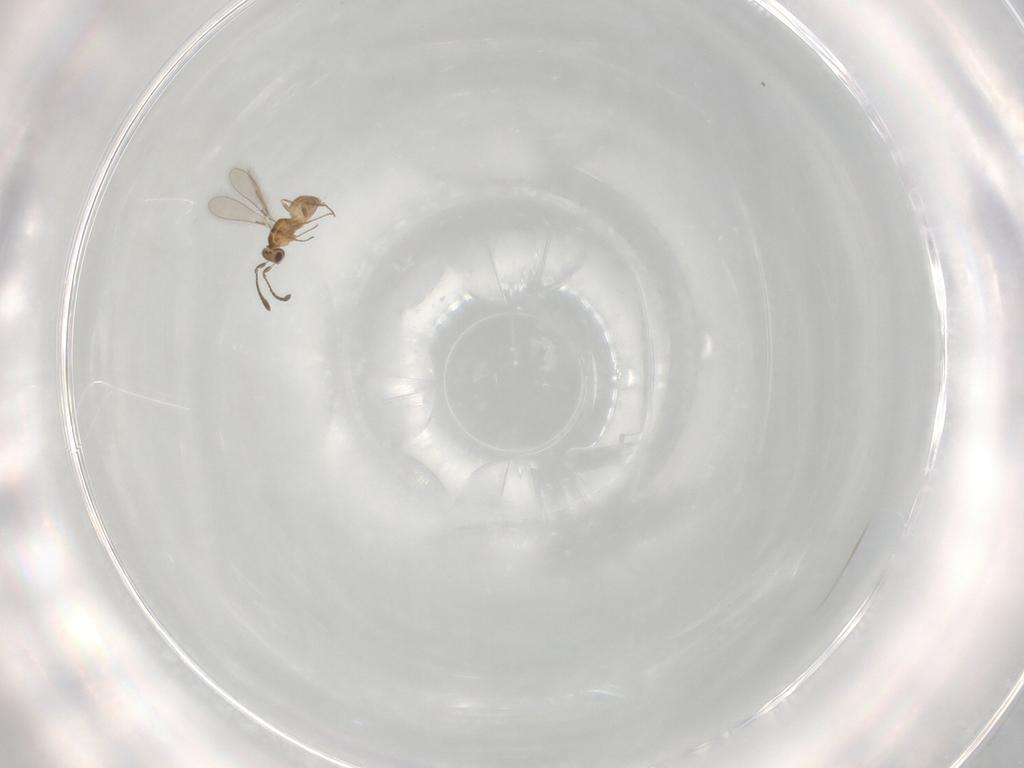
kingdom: Animalia
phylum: Arthropoda
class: Insecta
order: Hymenoptera
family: Mymaridae
